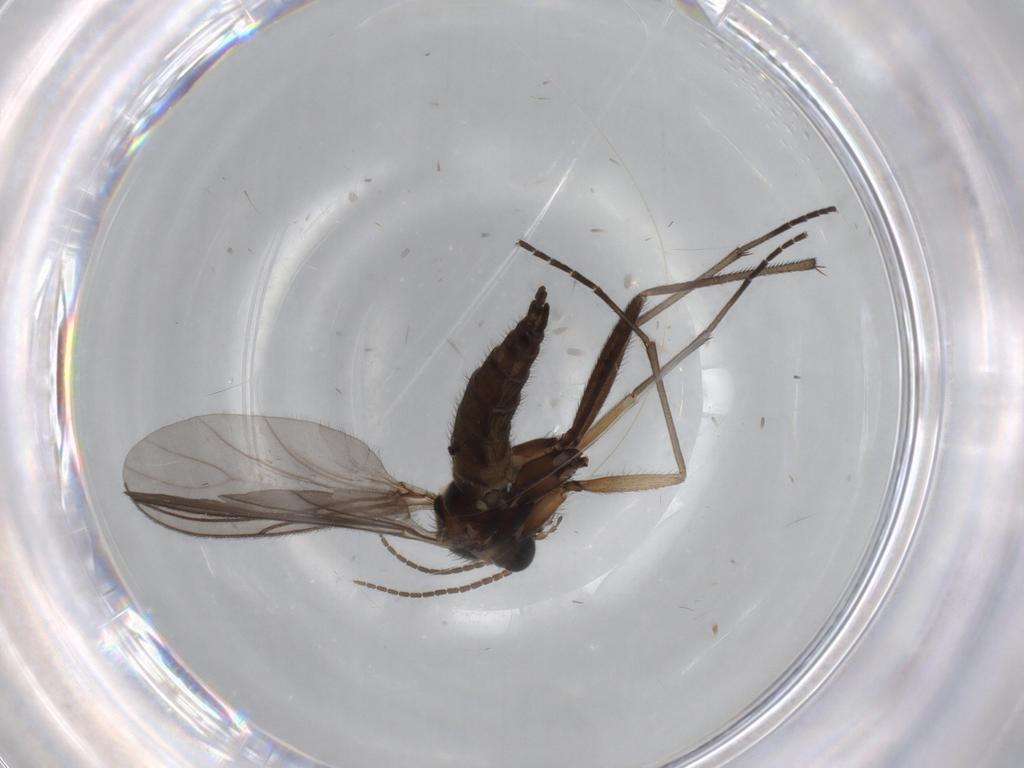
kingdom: Animalia
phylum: Arthropoda
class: Insecta
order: Diptera
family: Sciaridae
